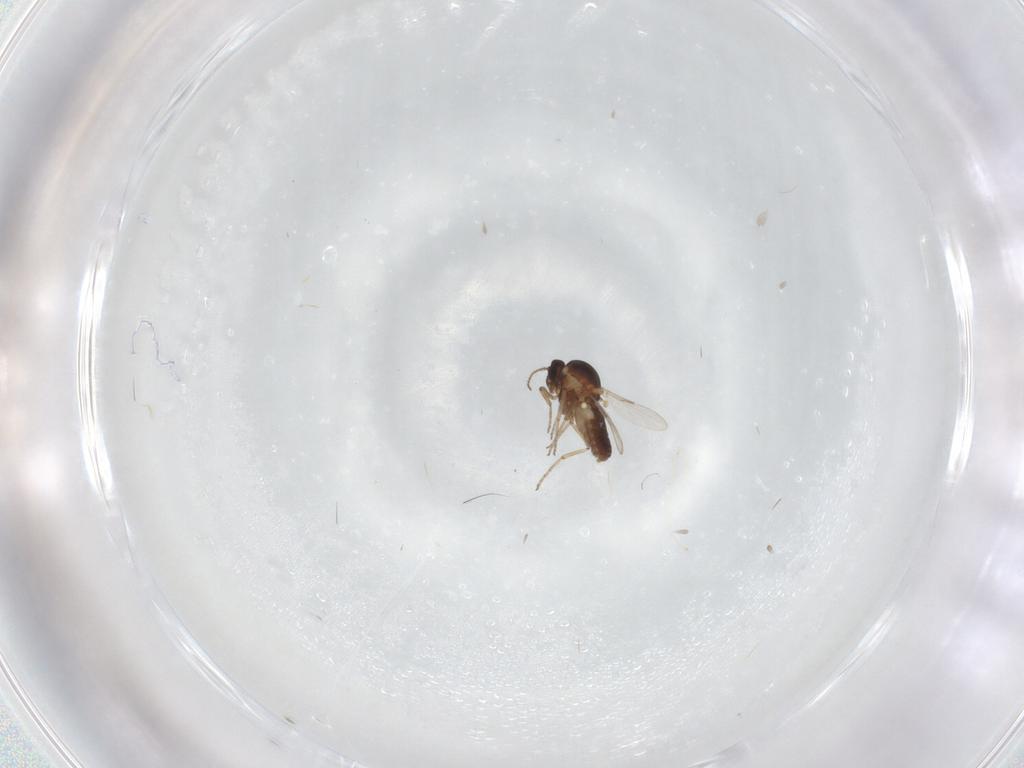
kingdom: Animalia
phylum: Arthropoda
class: Insecta
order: Diptera
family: Ceratopogonidae
